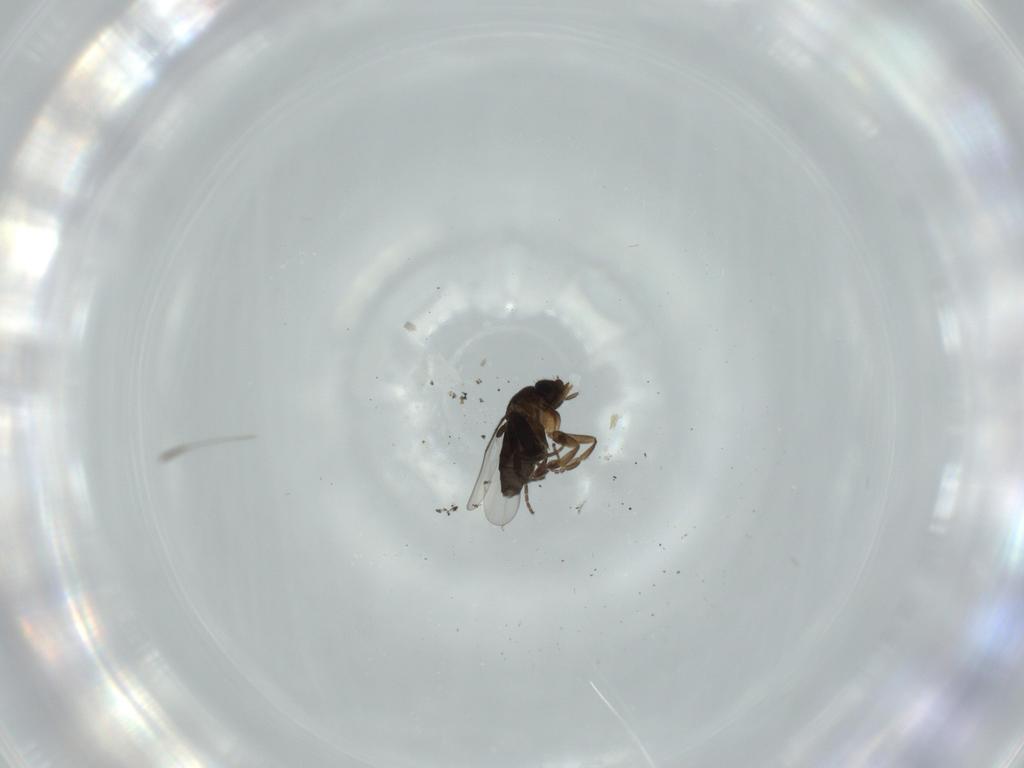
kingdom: Animalia
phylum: Arthropoda
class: Insecta
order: Diptera
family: Phoridae
